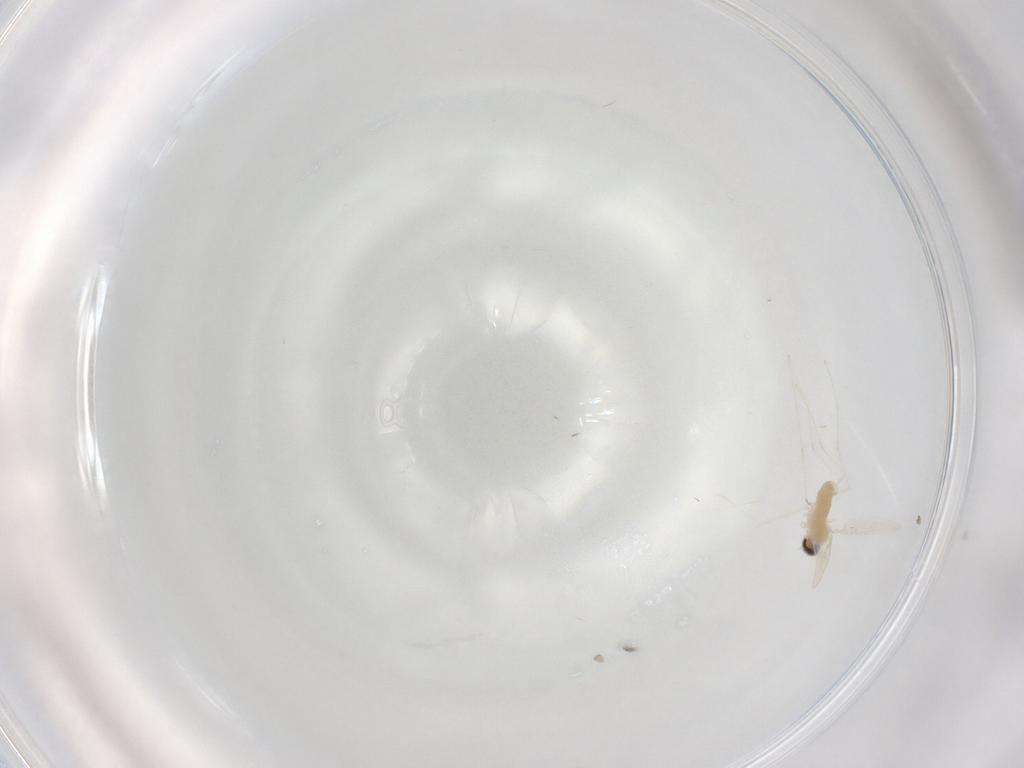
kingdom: Animalia
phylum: Arthropoda
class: Insecta
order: Diptera
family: Cecidomyiidae
